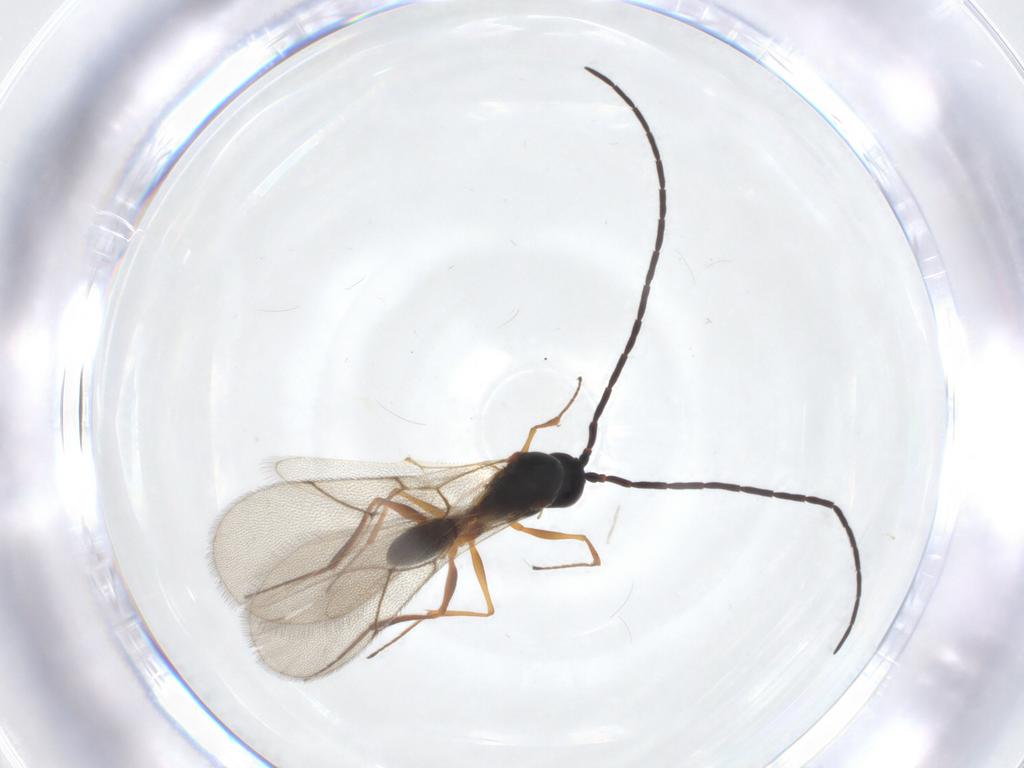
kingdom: Animalia
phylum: Arthropoda
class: Insecta
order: Hymenoptera
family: Figitidae
